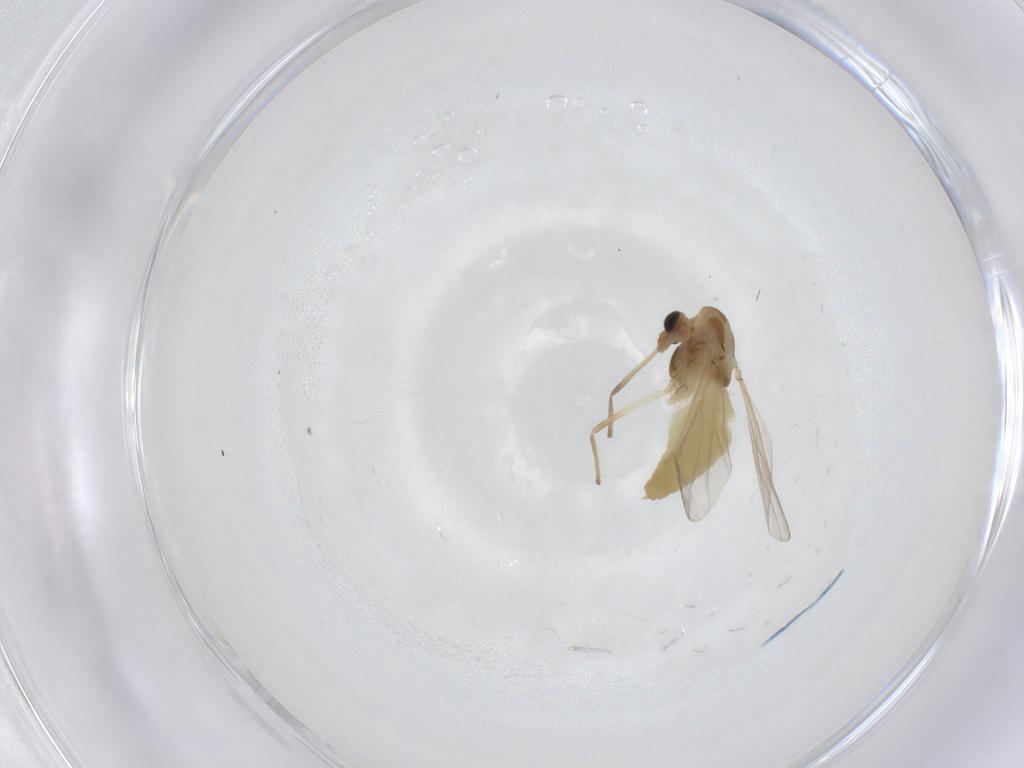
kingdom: Animalia
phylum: Arthropoda
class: Insecta
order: Diptera
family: Chironomidae
